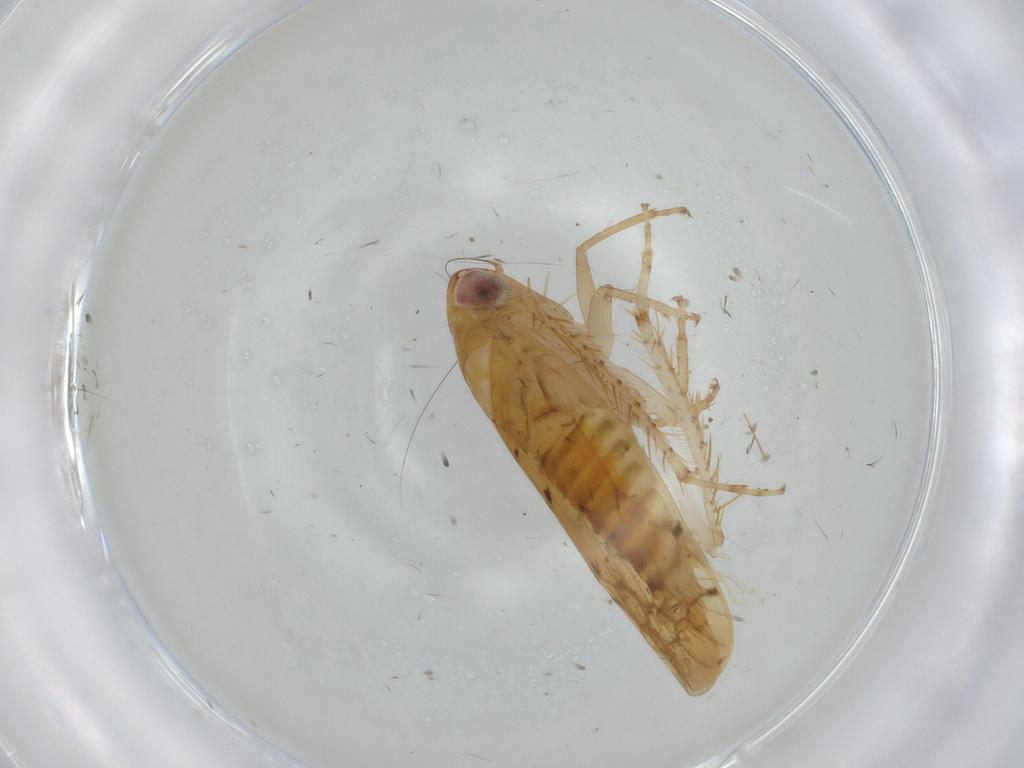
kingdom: Animalia
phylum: Arthropoda
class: Insecta
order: Hemiptera
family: Cicadellidae
